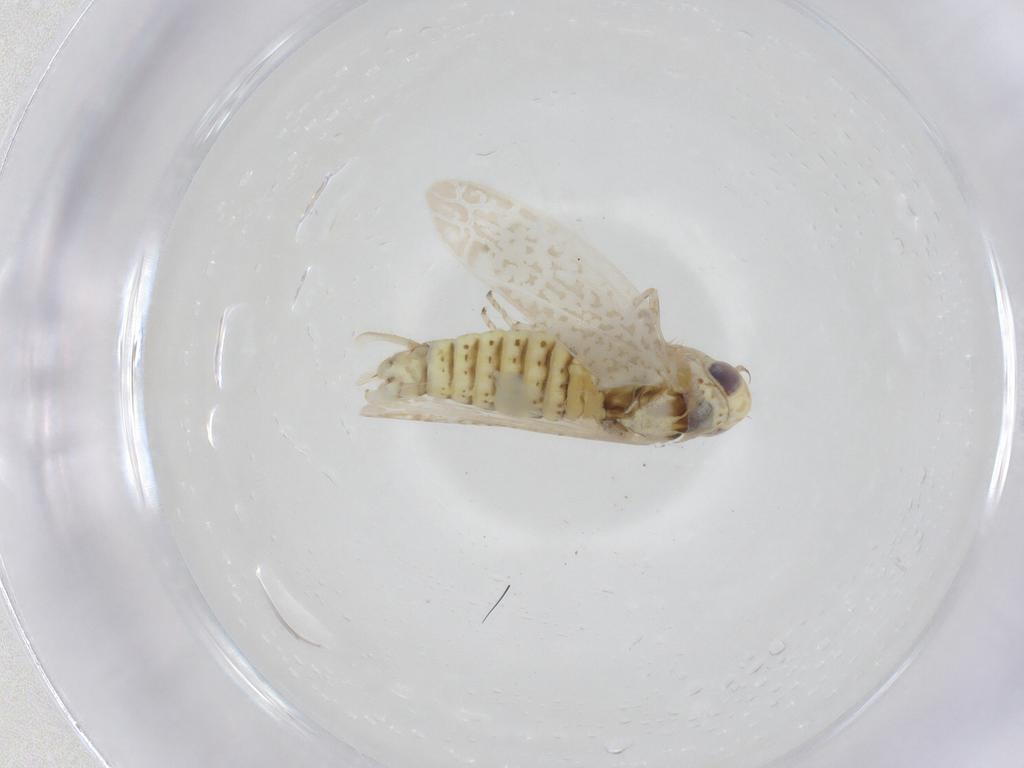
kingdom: Animalia
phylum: Arthropoda
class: Insecta
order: Hemiptera
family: Cicadellidae
